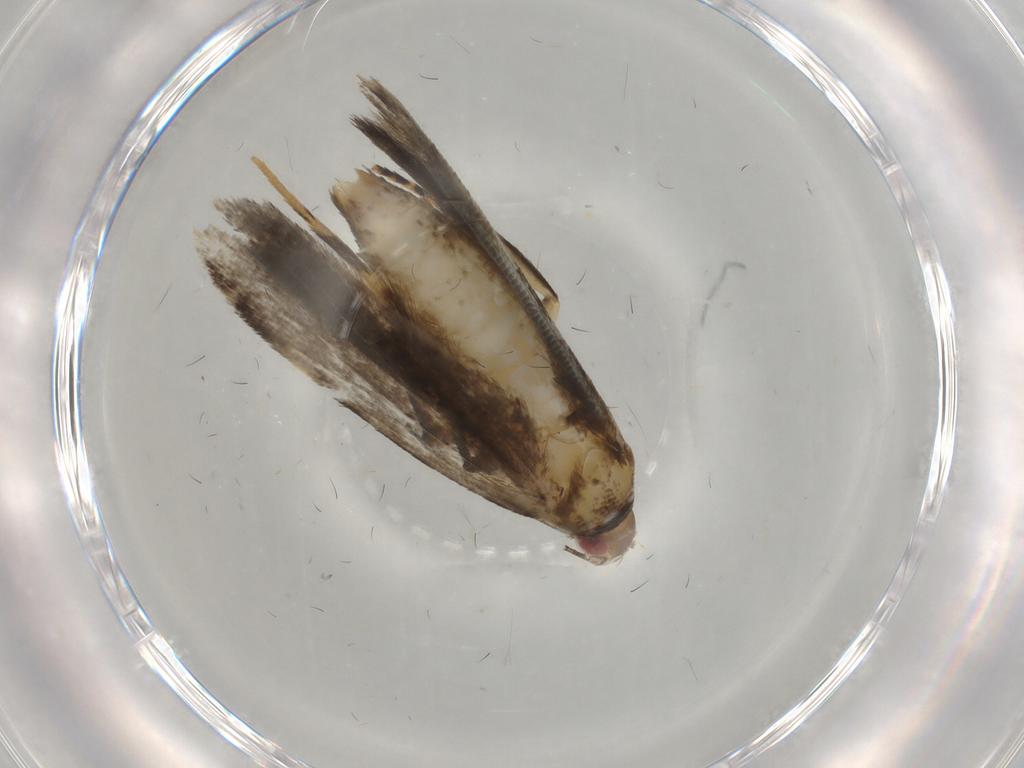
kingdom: Animalia
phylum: Arthropoda
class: Insecta
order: Lepidoptera
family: Gelechiidae
